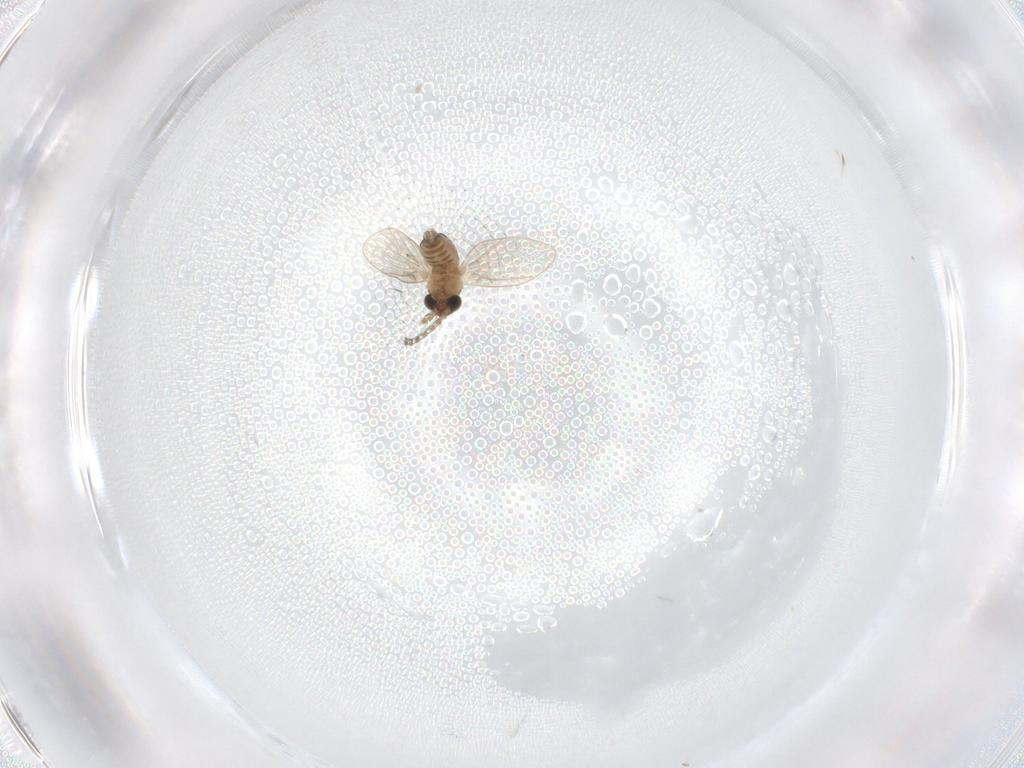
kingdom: Animalia
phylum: Arthropoda
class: Insecta
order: Diptera
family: Psychodidae
